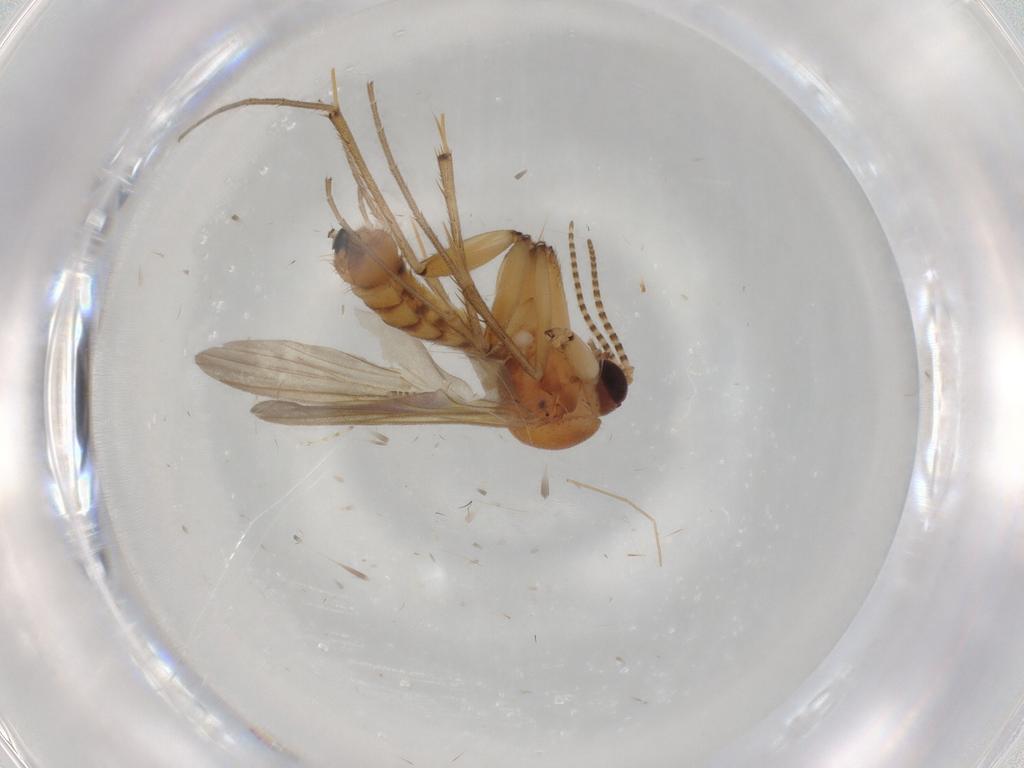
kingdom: Animalia
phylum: Arthropoda
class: Insecta
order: Diptera
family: Mycetophilidae
